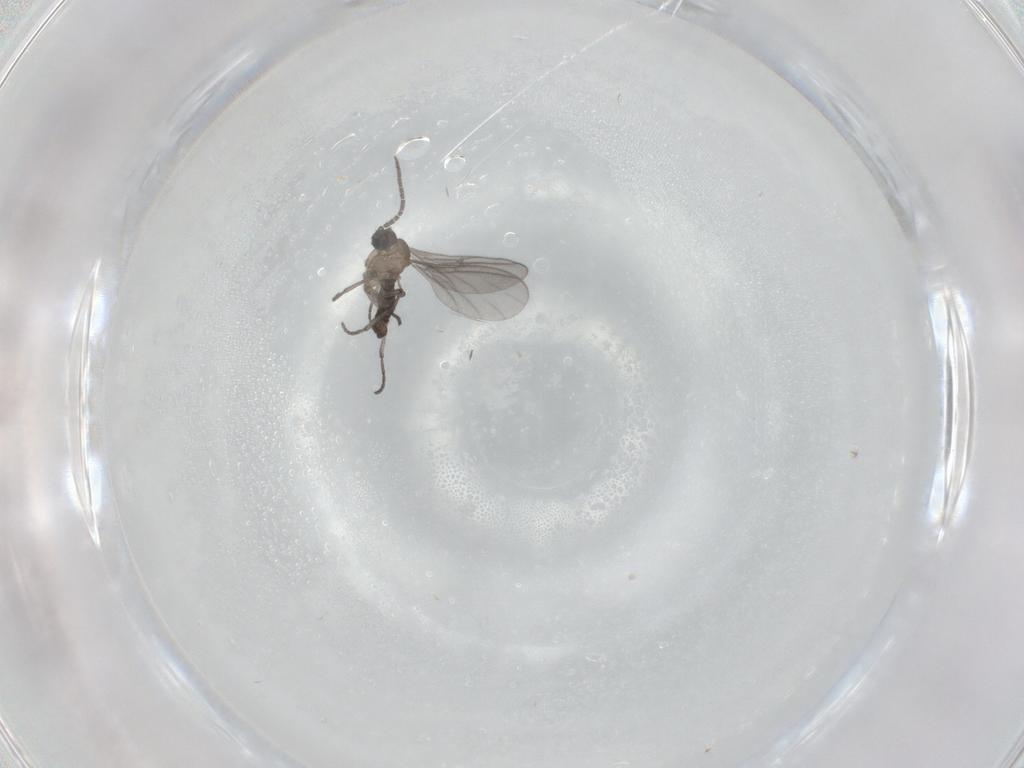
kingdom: Animalia
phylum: Arthropoda
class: Insecta
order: Diptera
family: Sciaridae
